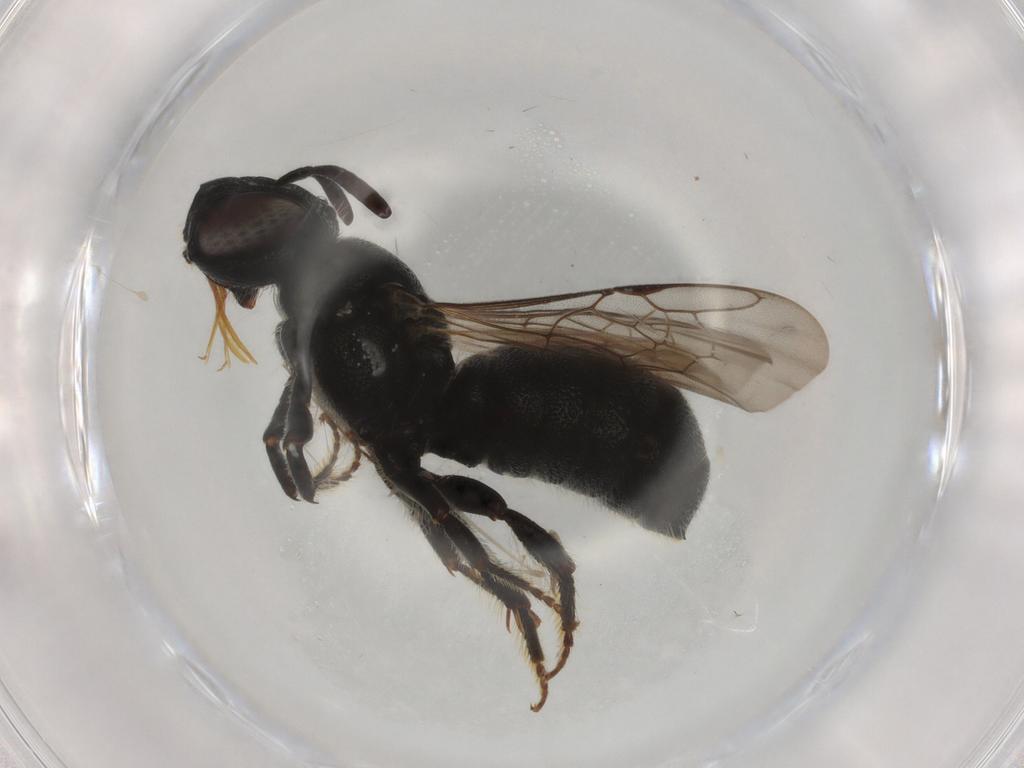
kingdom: Animalia
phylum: Arthropoda
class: Insecta
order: Hymenoptera
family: Apidae
